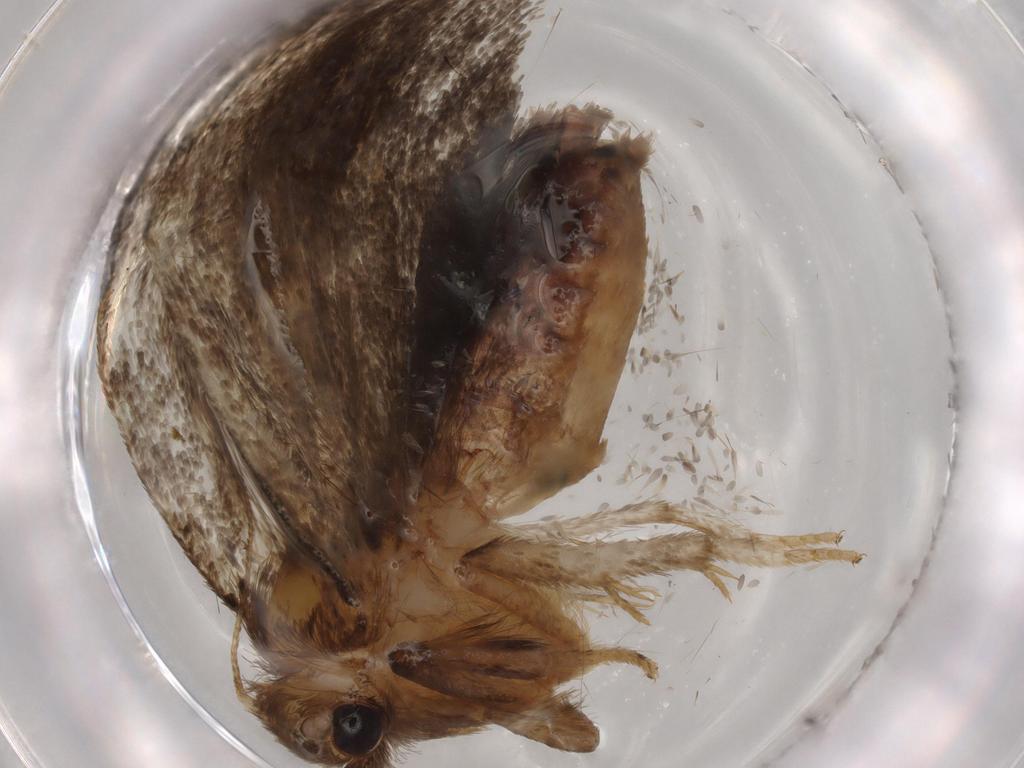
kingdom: Animalia
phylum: Arthropoda
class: Insecta
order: Lepidoptera
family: Tineidae
